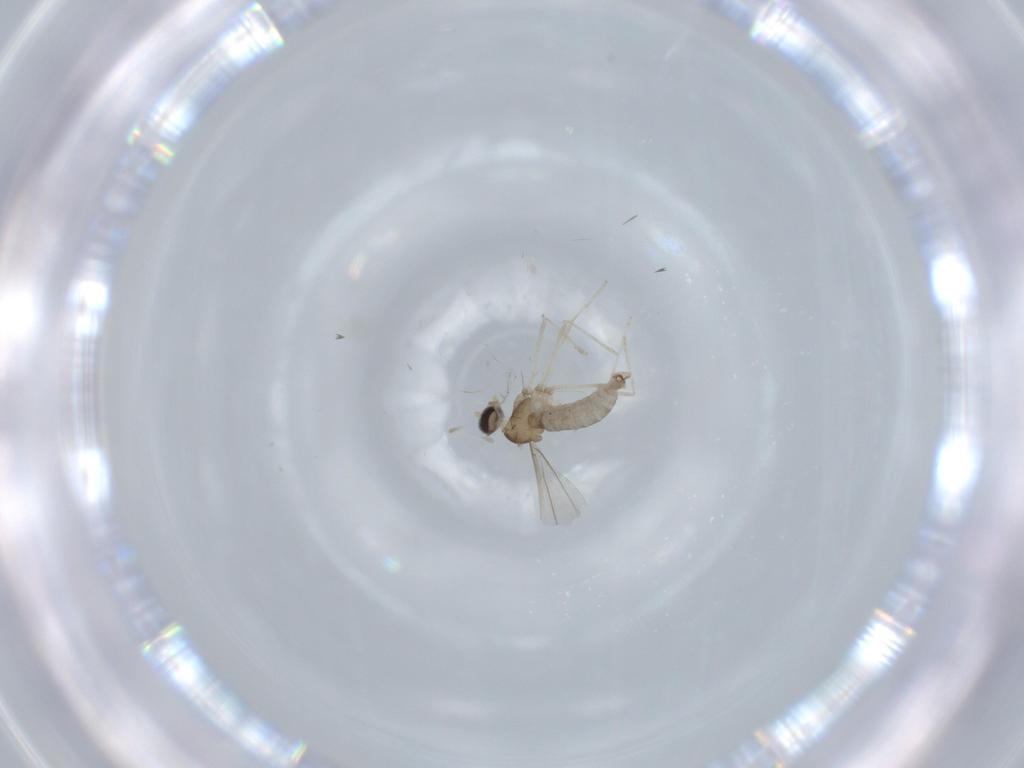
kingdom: Animalia
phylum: Arthropoda
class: Insecta
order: Diptera
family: Cecidomyiidae
